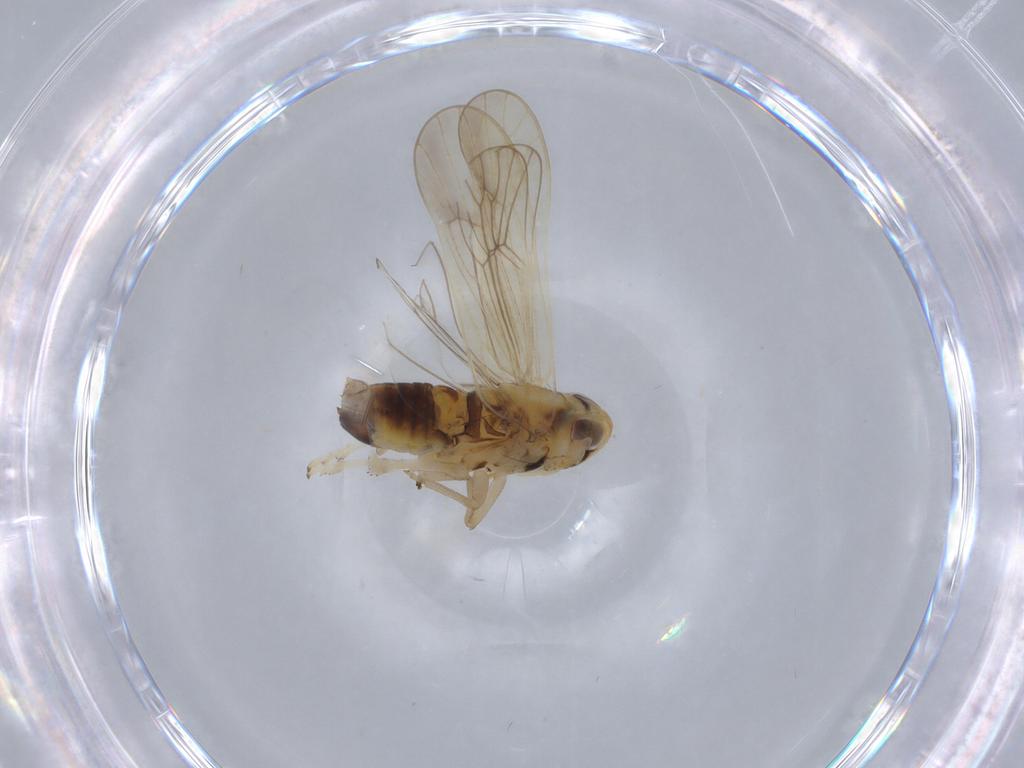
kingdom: Animalia
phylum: Arthropoda
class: Insecta
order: Hemiptera
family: Delphacidae
